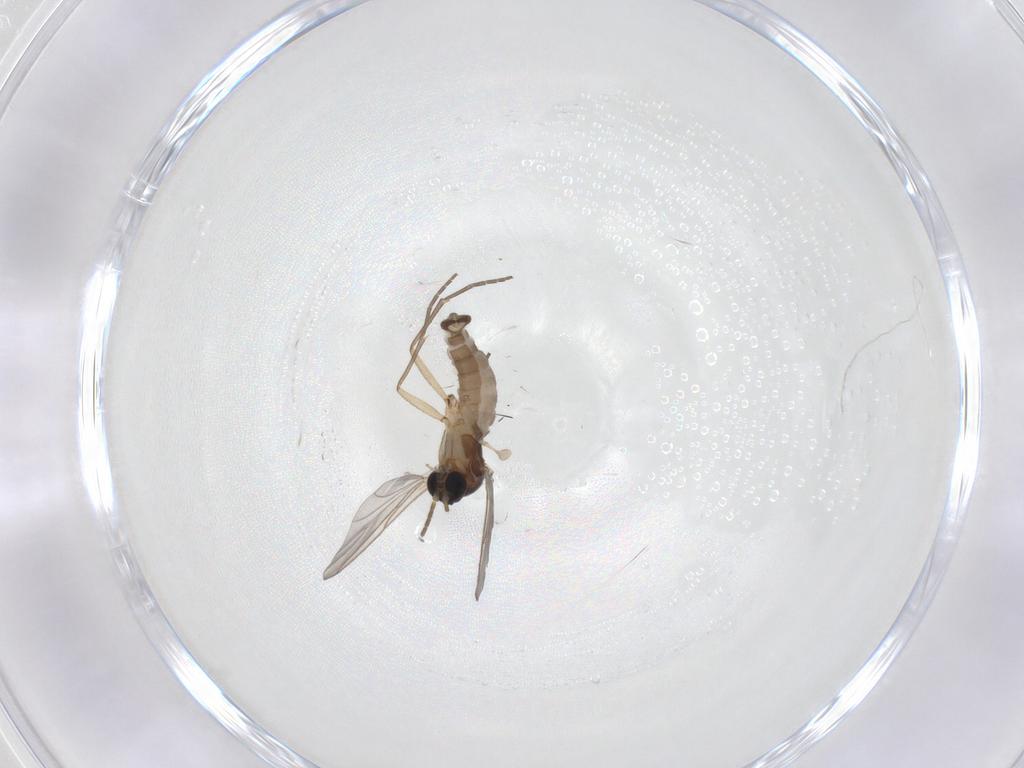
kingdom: Animalia
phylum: Arthropoda
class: Insecta
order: Diptera
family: Sciaridae
